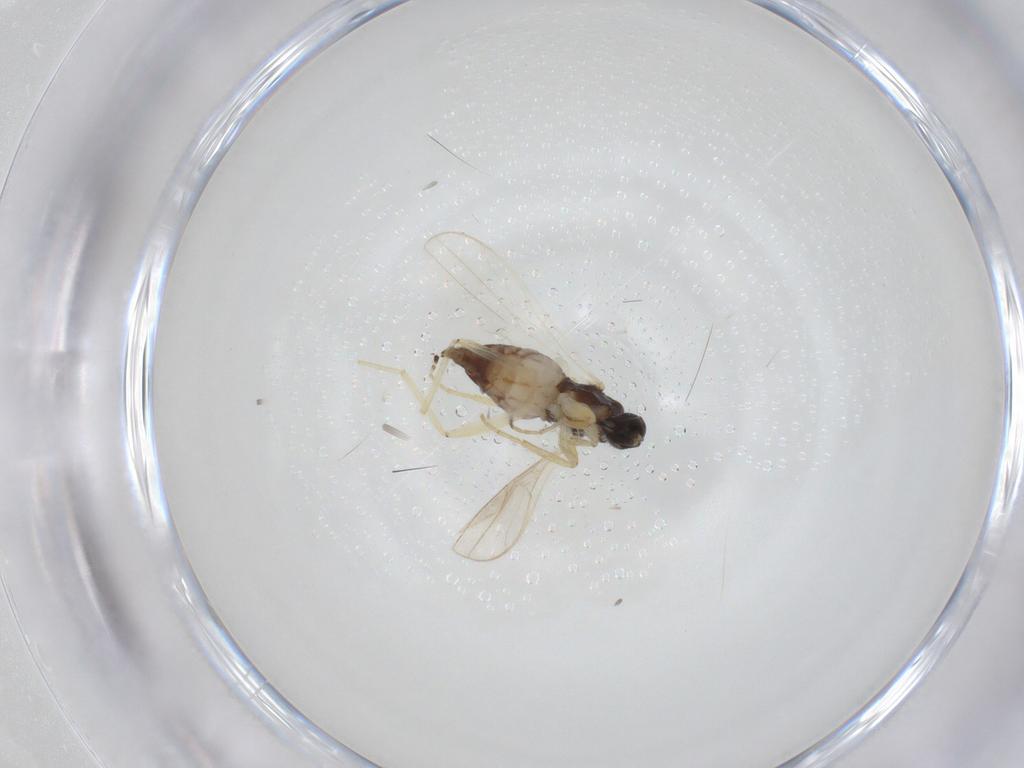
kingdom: Animalia
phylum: Arthropoda
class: Insecta
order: Diptera
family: Hybotidae
